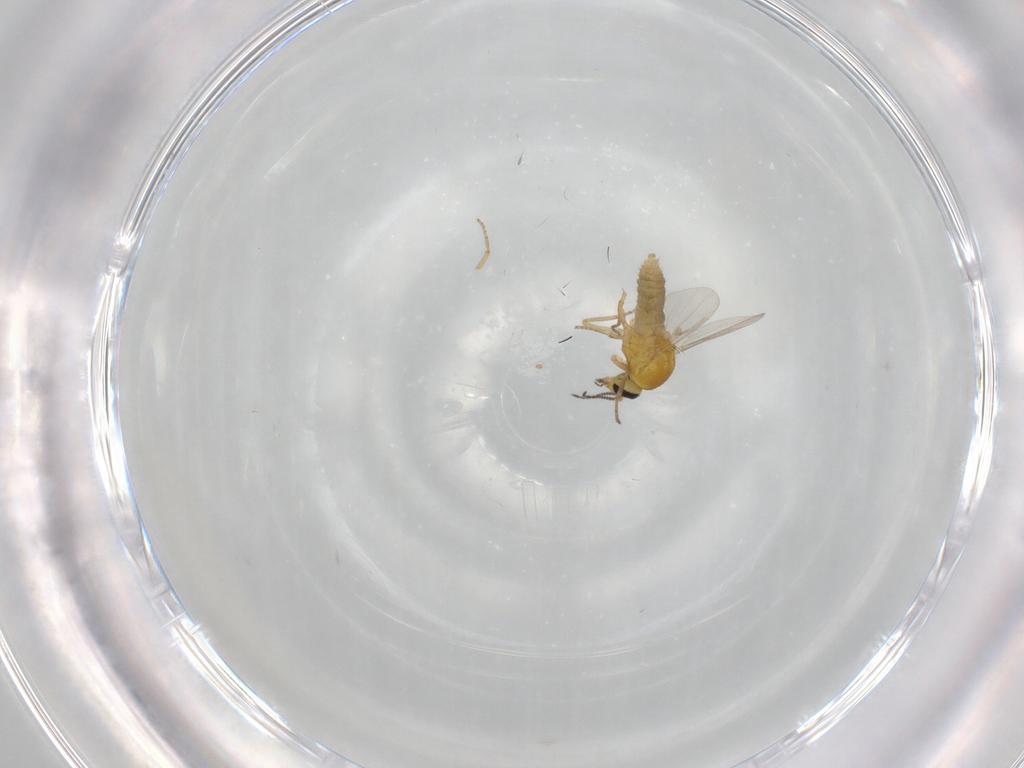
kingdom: Animalia
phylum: Arthropoda
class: Insecta
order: Diptera
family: Ceratopogonidae
